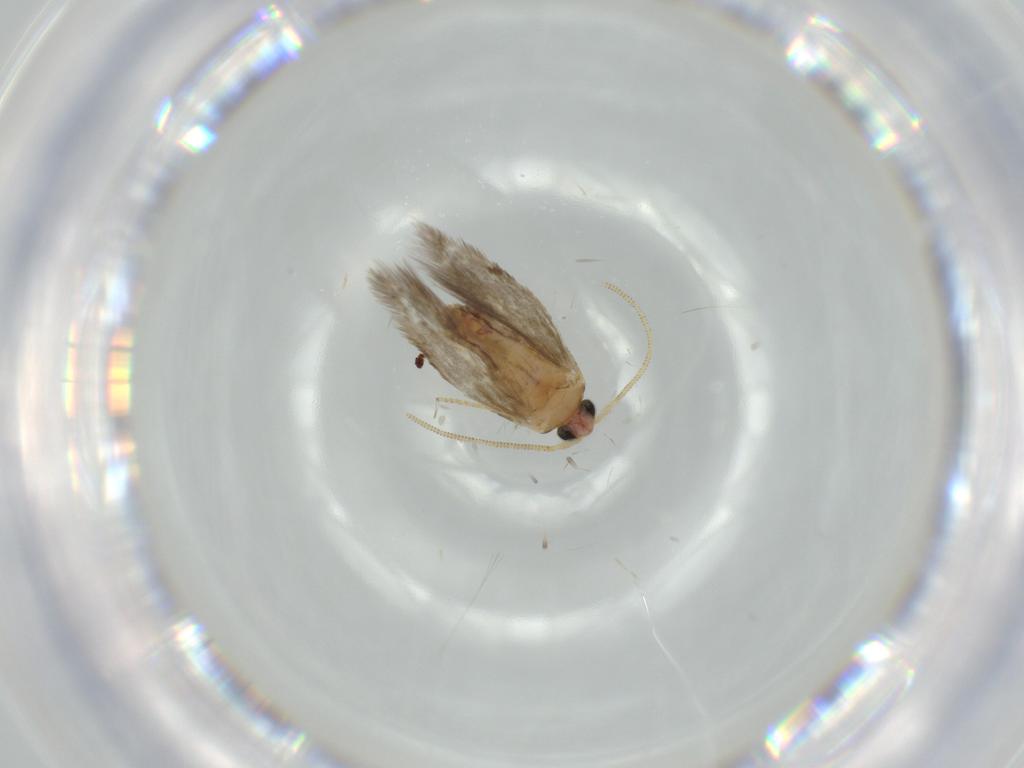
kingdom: Animalia
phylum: Arthropoda
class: Insecta
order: Lepidoptera
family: Nepticulidae
